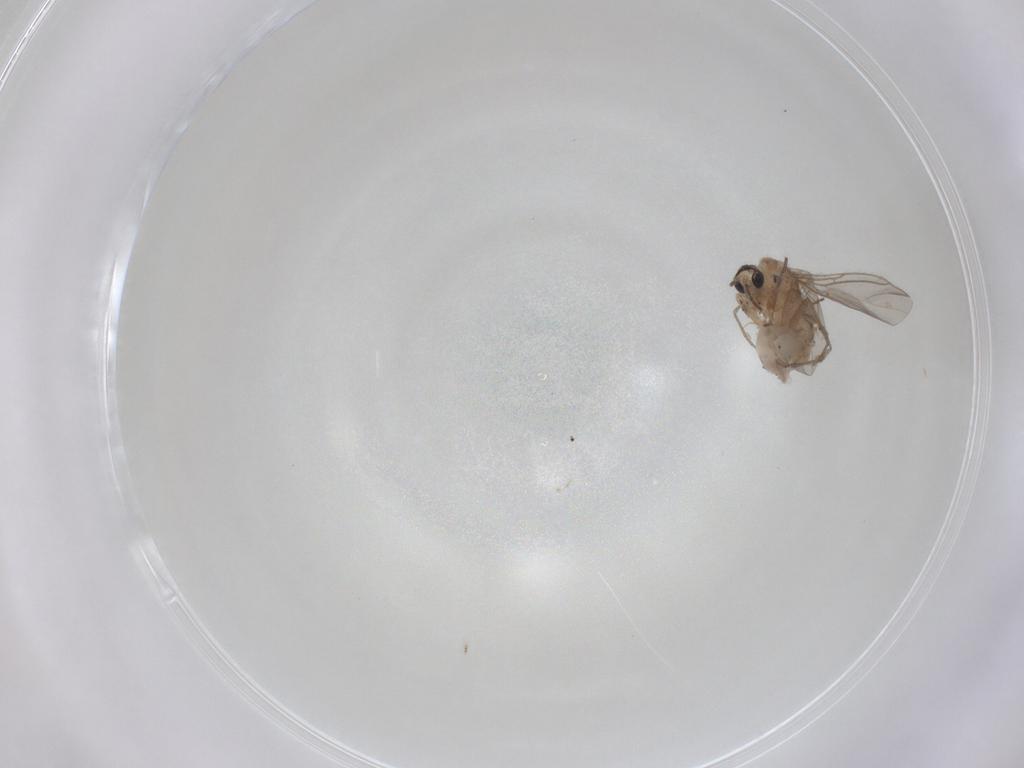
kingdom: Animalia
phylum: Arthropoda
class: Insecta
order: Diptera
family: Sciaridae
